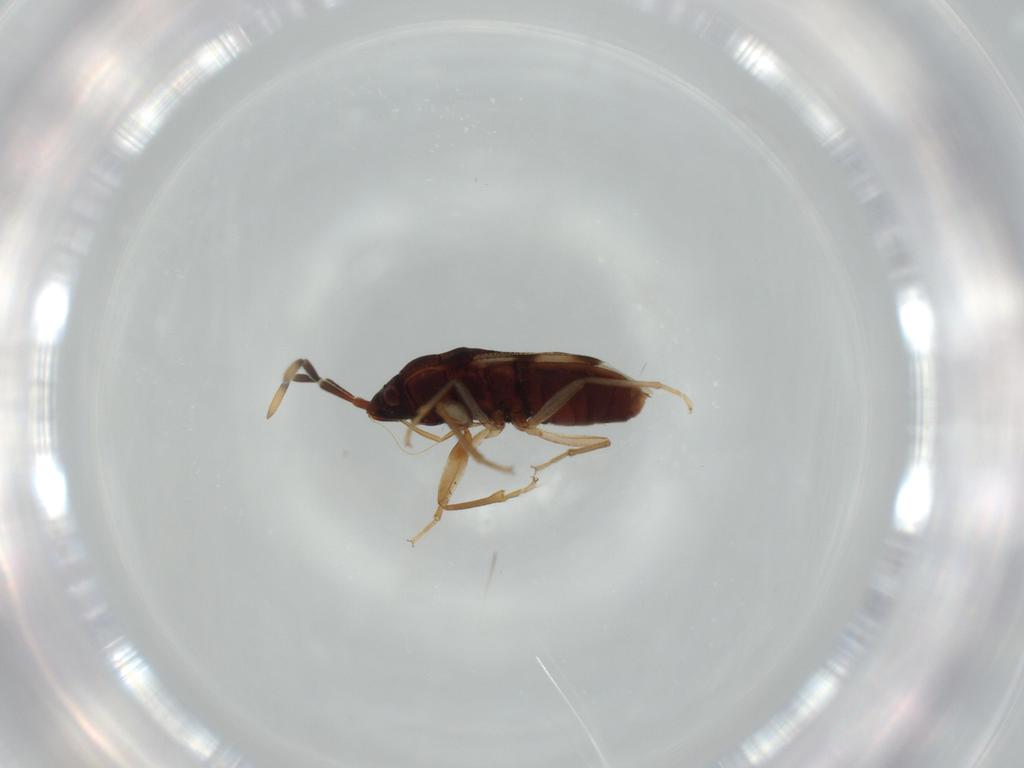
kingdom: Animalia
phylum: Arthropoda
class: Insecta
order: Hemiptera
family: Rhyparochromidae
